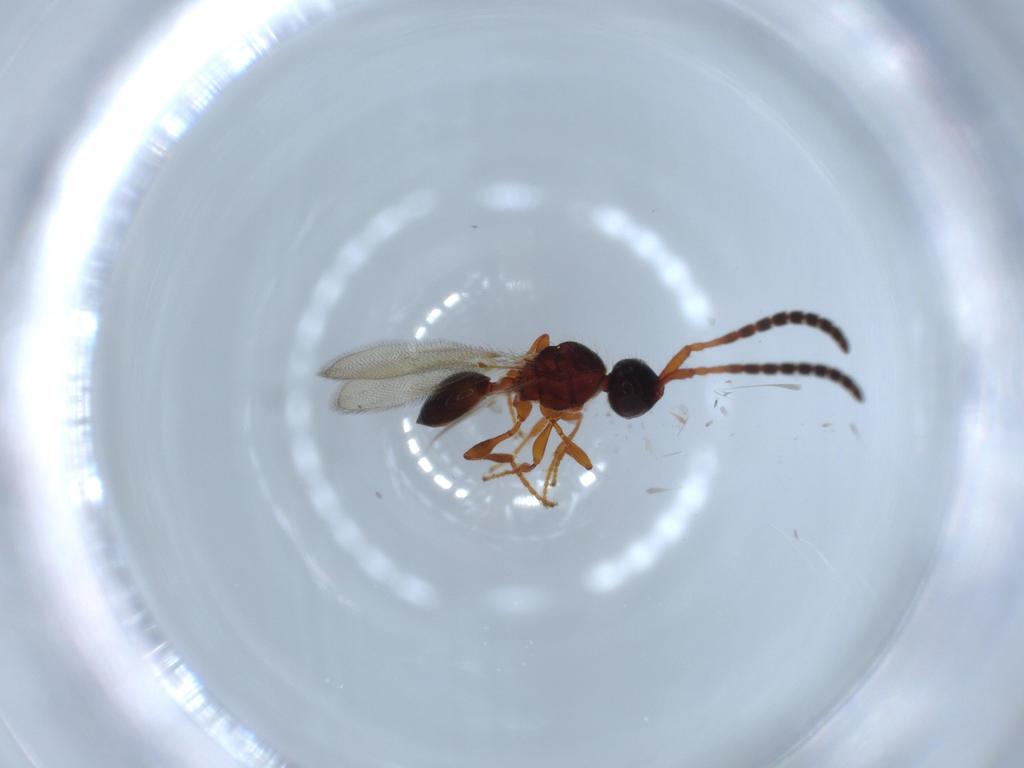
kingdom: Animalia
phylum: Arthropoda
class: Insecta
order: Hymenoptera
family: Diapriidae
